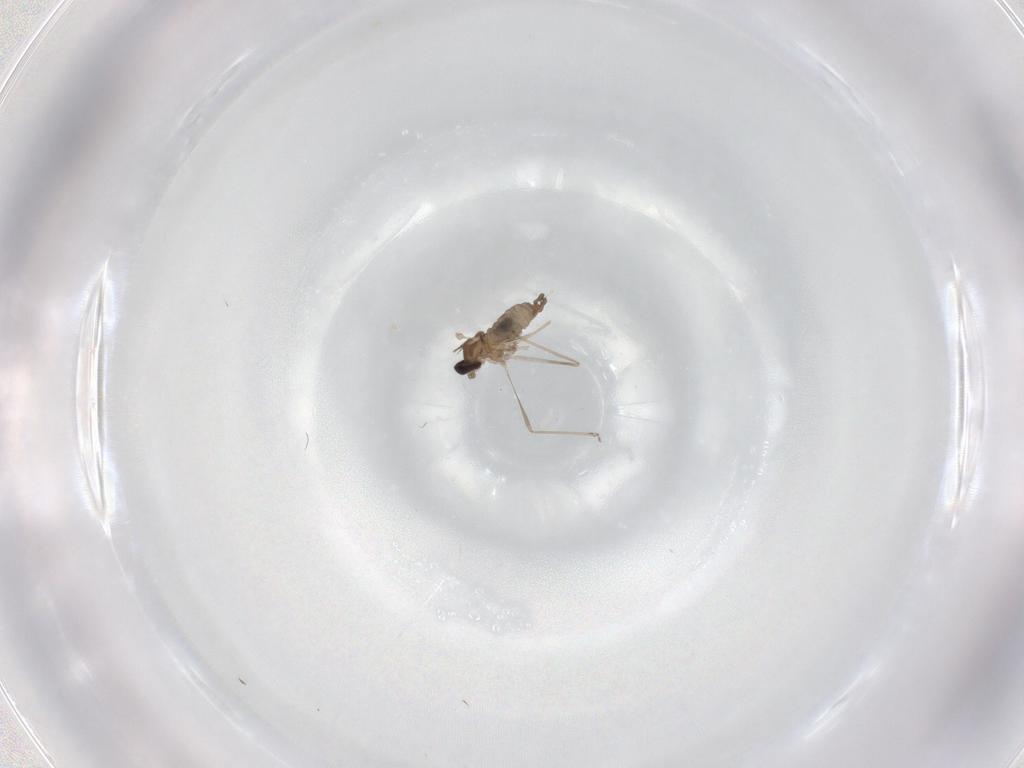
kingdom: Animalia
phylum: Arthropoda
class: Insecta
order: Diptera
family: Cecidomyiidae
